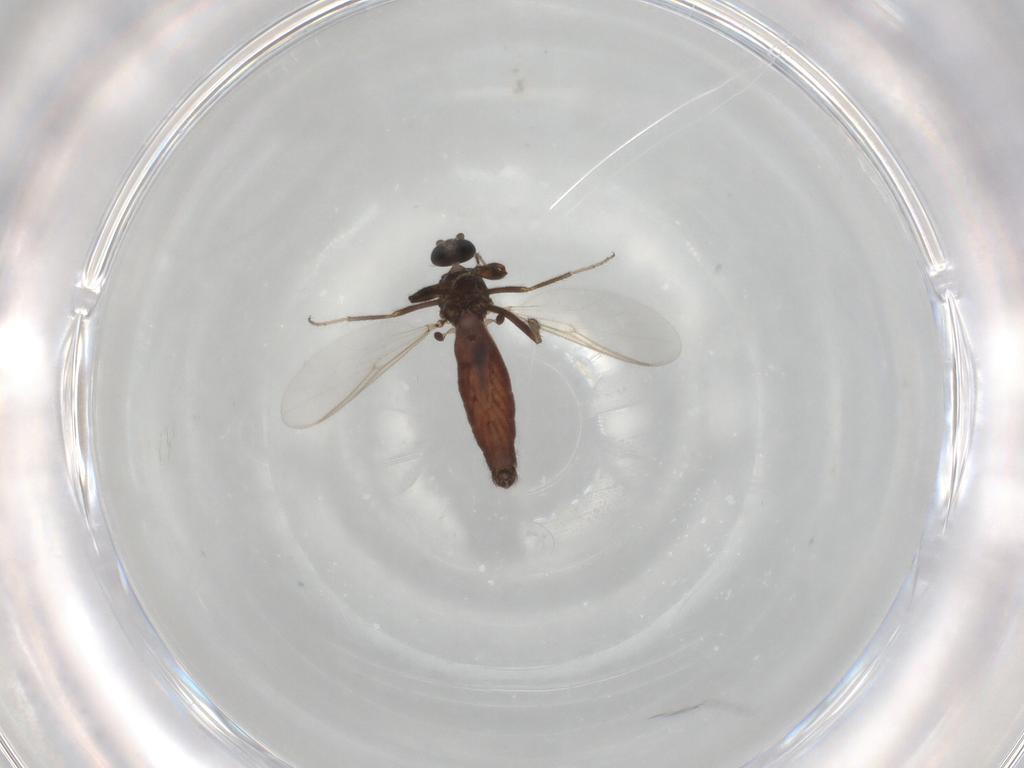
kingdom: Animalia
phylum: Arthropoda
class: Insecta
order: Diptera
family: Ceratopogonidae
